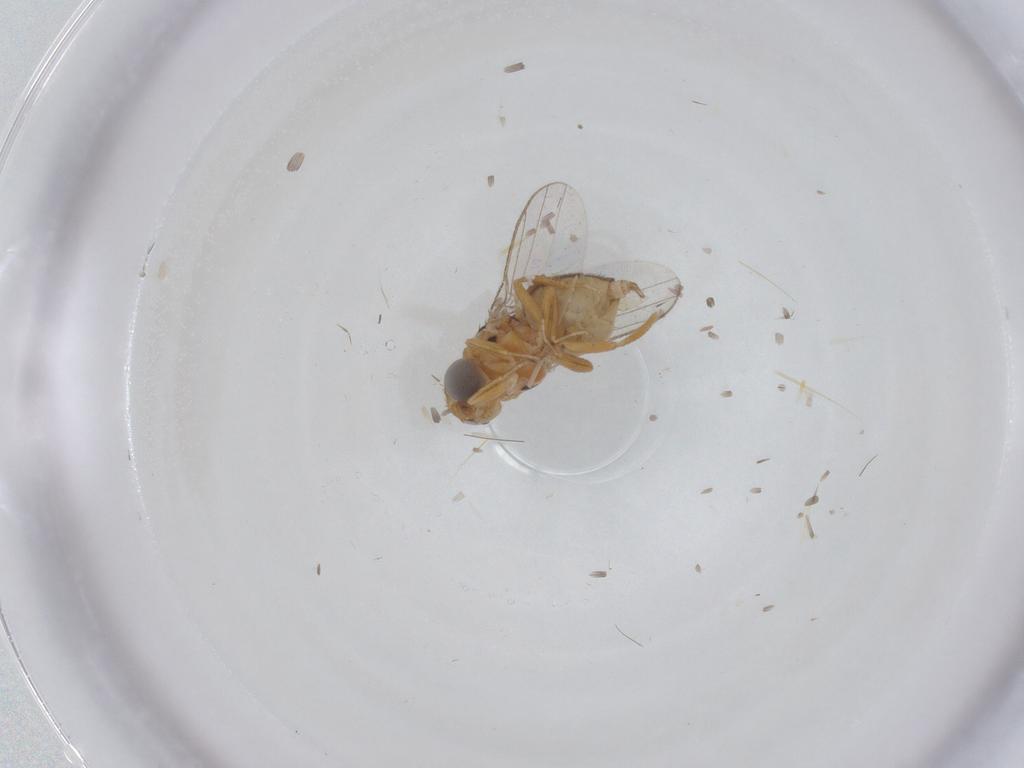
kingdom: Animalia
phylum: Arthropoda
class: Insecta
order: Diptera
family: Chloropidae
